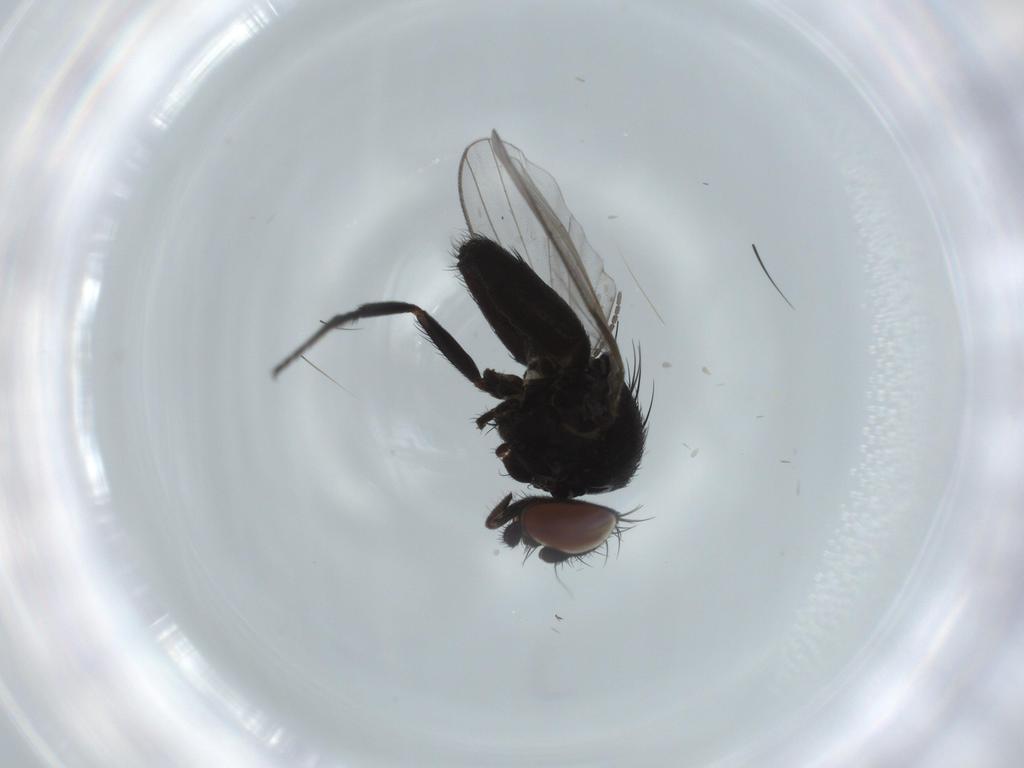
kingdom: Animalia
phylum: Arthropoda
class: Insecta
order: Diptera
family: Milichiidae
